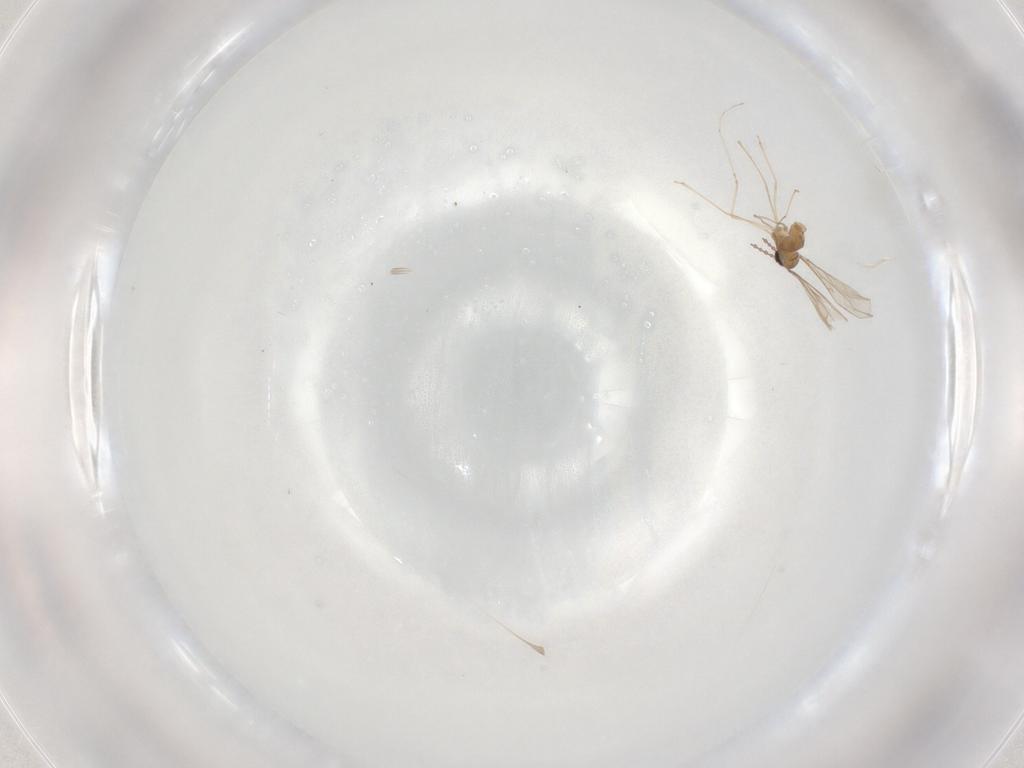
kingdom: Animalia
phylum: Arthropoda
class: Insecta
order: Diptera
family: Cecidomyiidae
